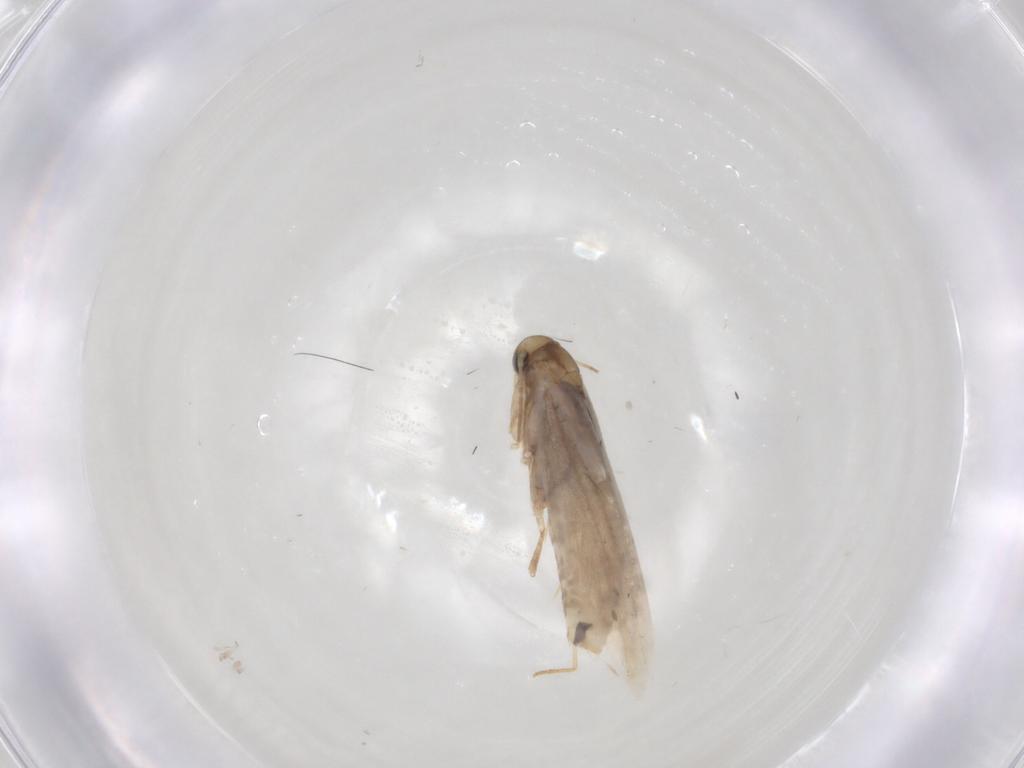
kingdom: Animalia
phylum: Arthropoda
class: Insecta
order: Lepidoptera
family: Gracillariidae
